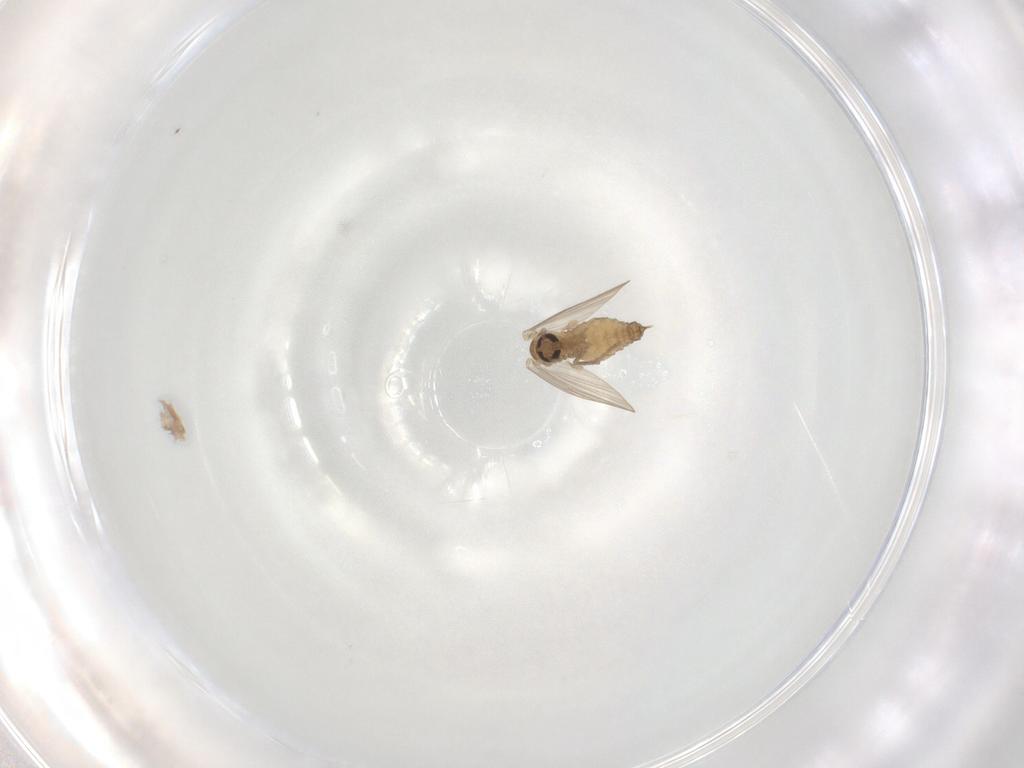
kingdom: Animalia
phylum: Arthropoda
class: Insecta
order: Diptera
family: Psychodidae
